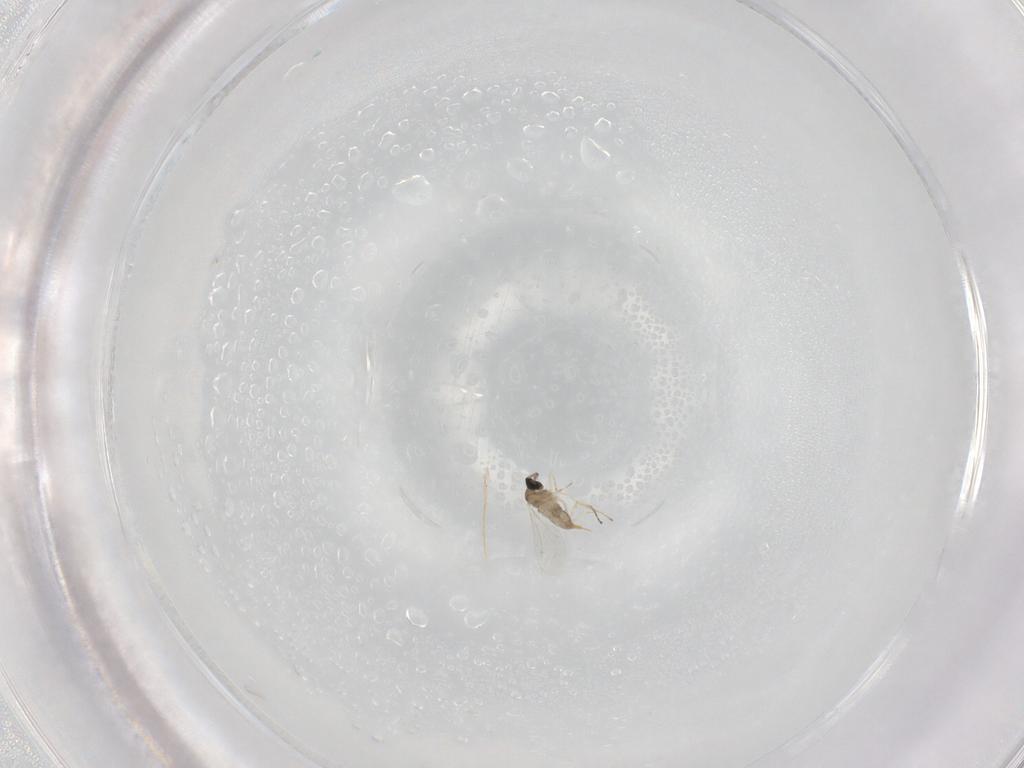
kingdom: Animalia
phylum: Arthropoda
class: Insecta
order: Diptera
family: Cecidomyiidae
